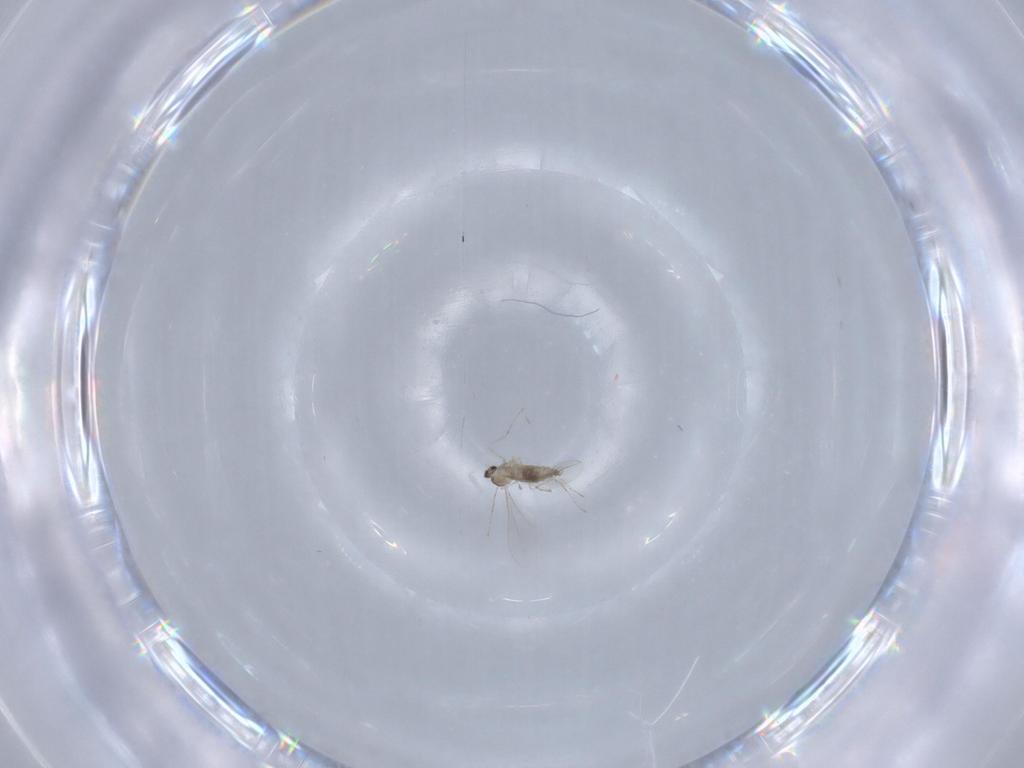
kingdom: Animalia
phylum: Arthropoda
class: Insecta
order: Diptera
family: Cecidomyiidae
